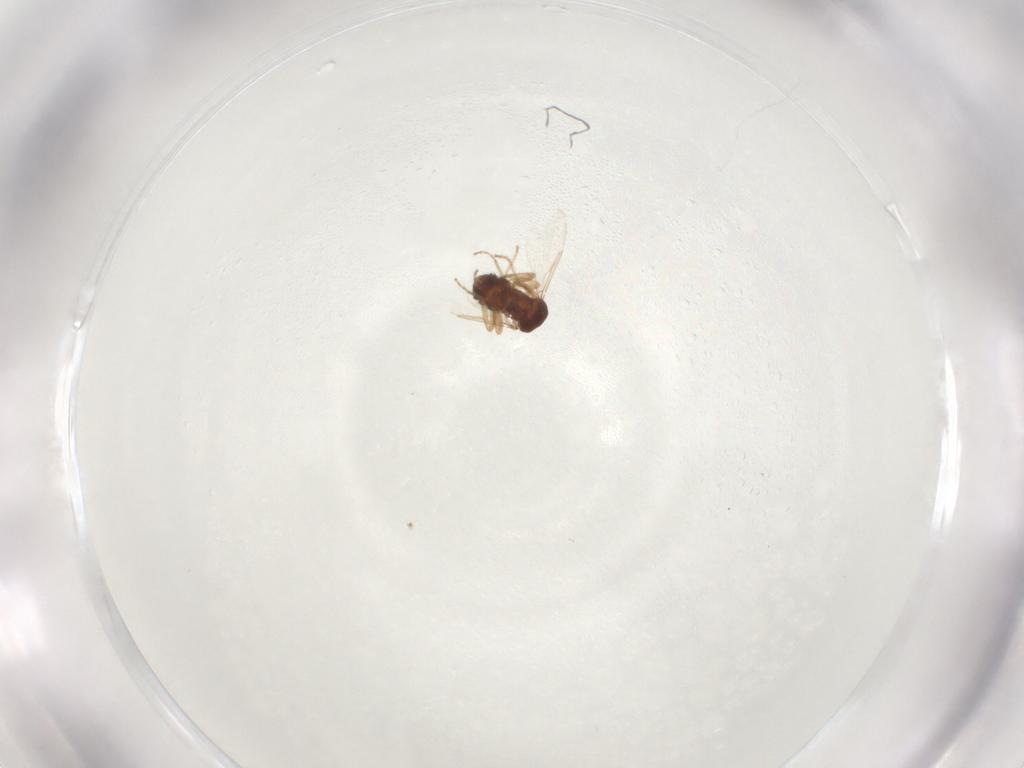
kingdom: Animalia
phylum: Arthropoda
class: Insecta
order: Diptera
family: Ceratopogonidae
